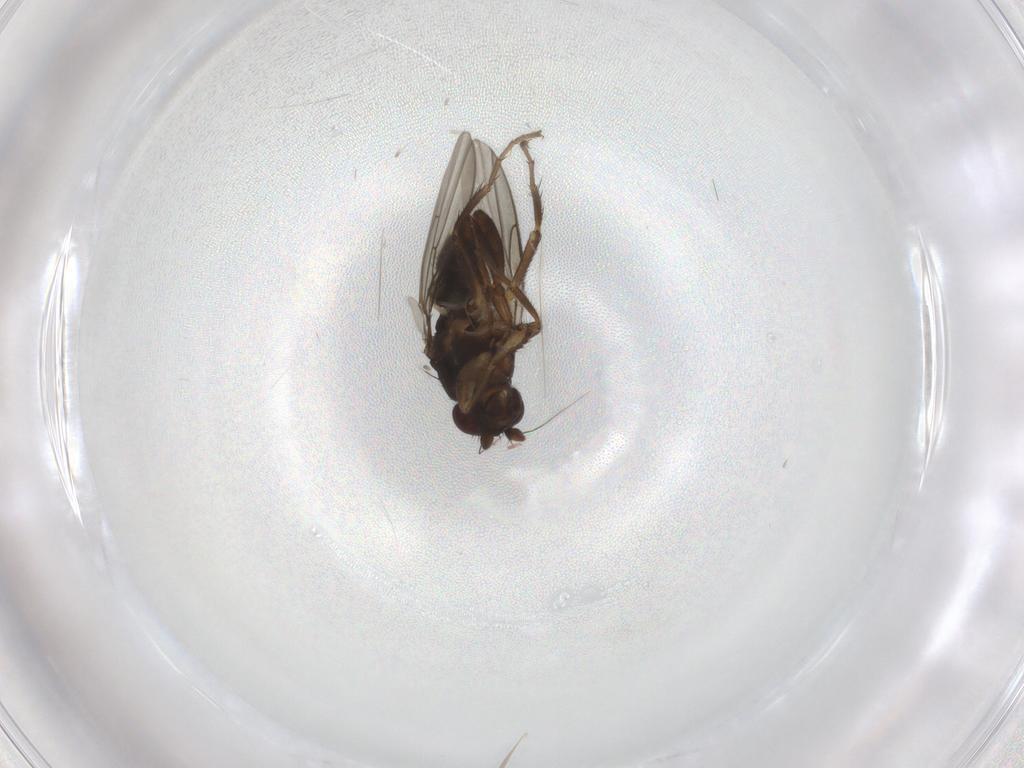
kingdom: Animalia
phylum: Arthropoda
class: Insecta
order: Diptera
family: Sphaeroceridae
